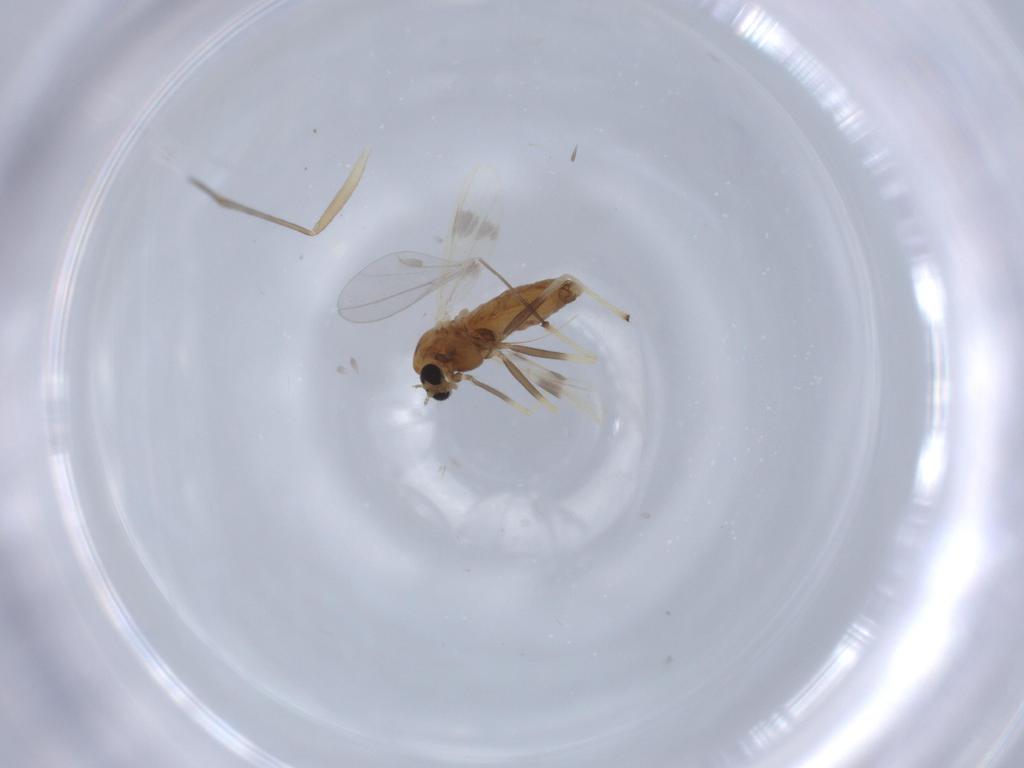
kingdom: Animalia
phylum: Arthropoda
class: Insecta
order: Diptera
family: Chironomidae
